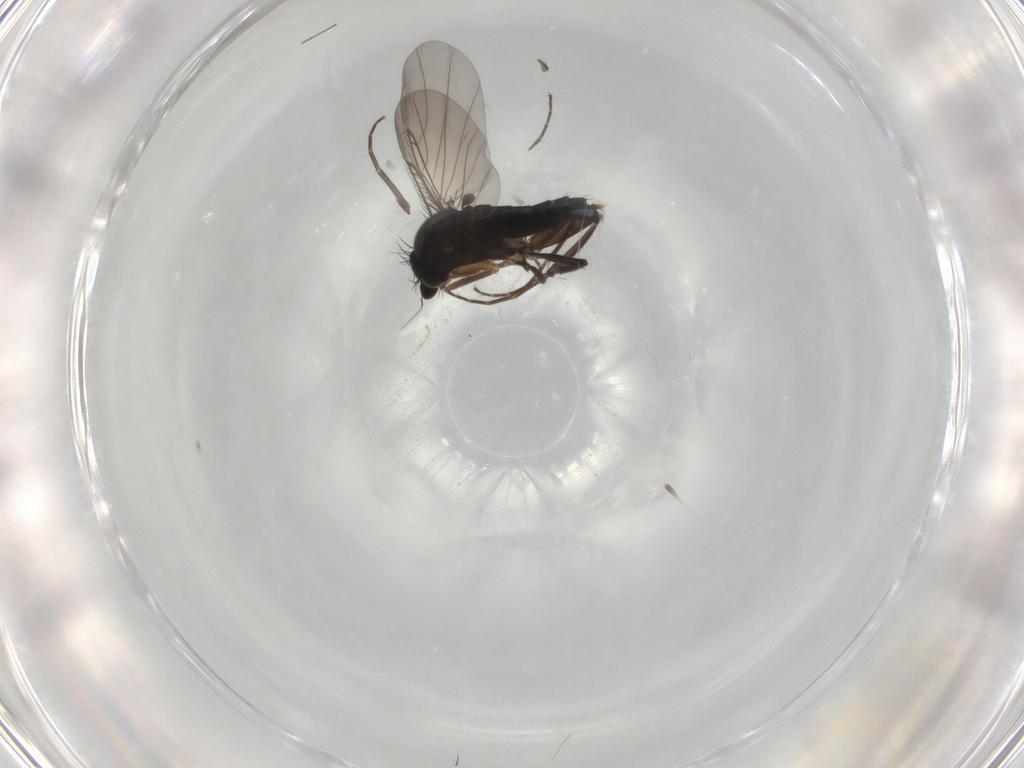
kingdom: Animalia
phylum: Arthropoda
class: Insecta
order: Diptera
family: Phoridae
